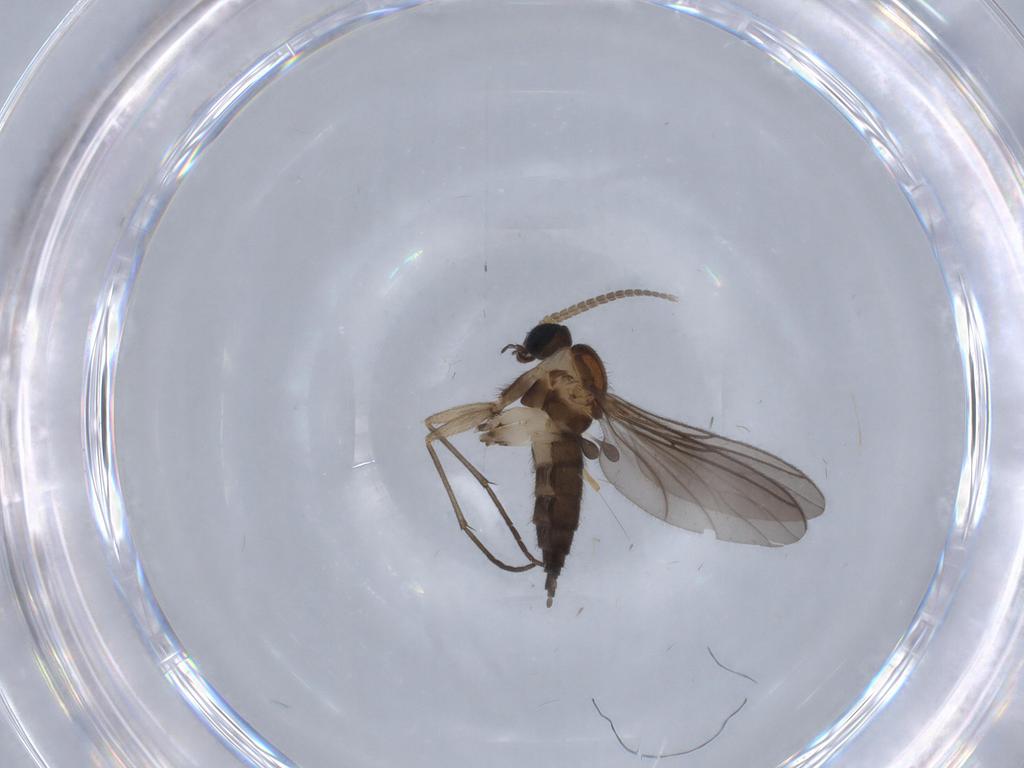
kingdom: Animalia
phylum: Arthropoda
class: Insecta
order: Diptera
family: Sciaridae
